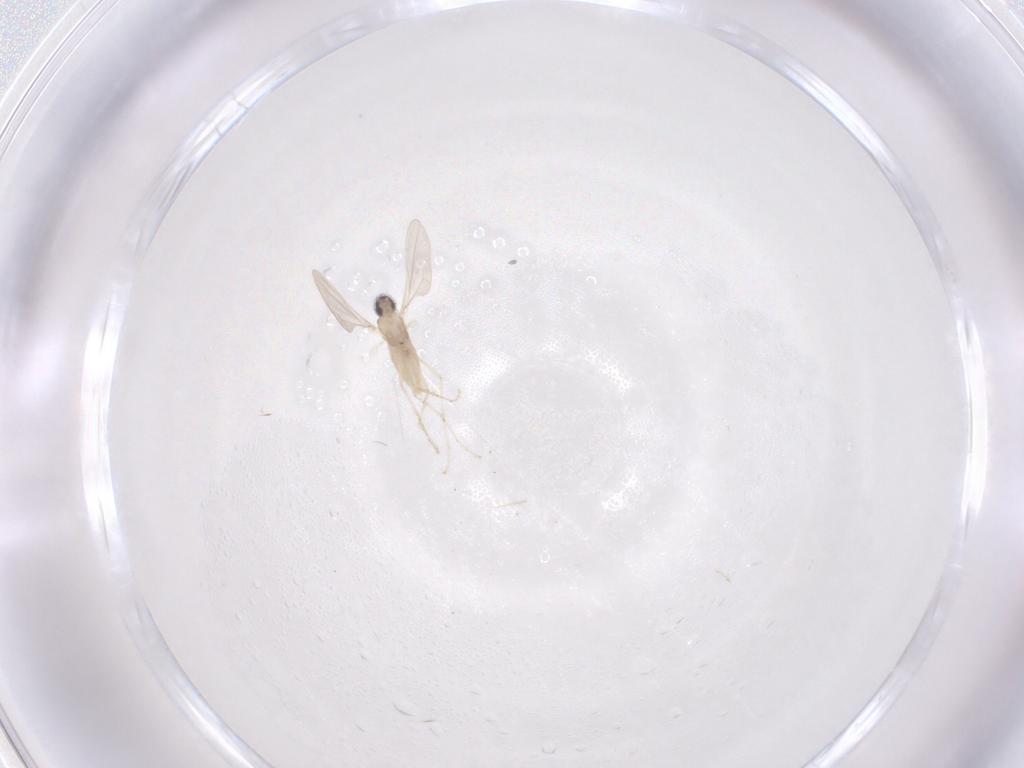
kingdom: Animalia
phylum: Arthropoda
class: Insecta
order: Diptera
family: Cecidomyiidae
